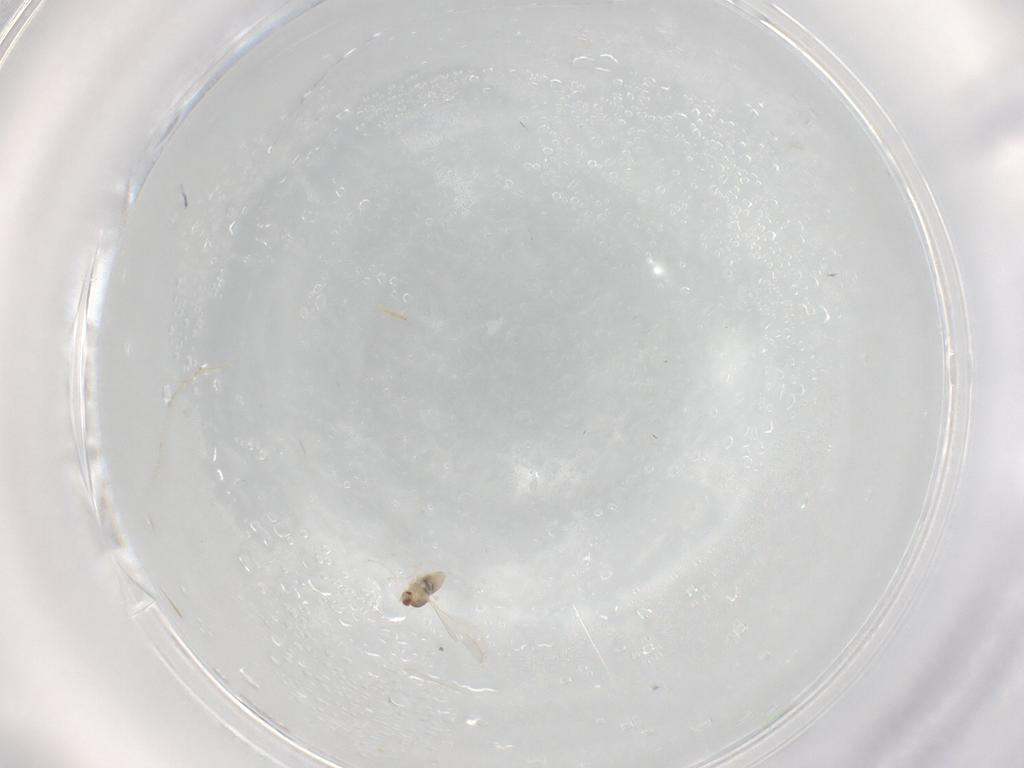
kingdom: Animalia
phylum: Arthropoda
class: Insecta
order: Diptera
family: Cecidomyiidae
